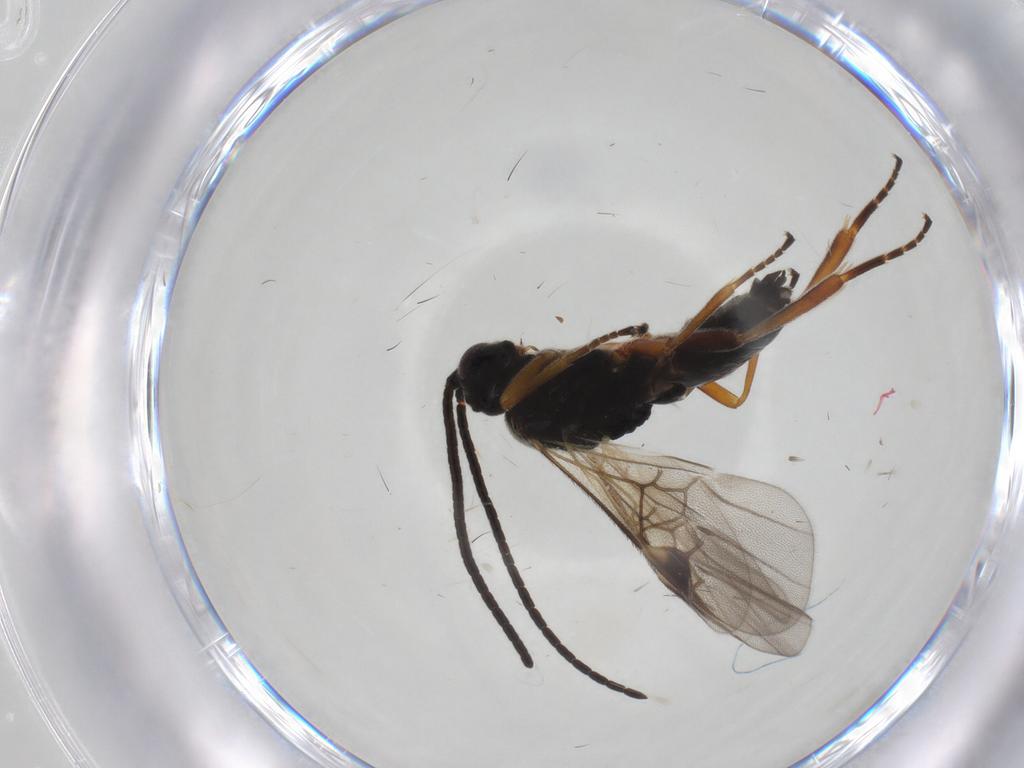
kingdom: Animalia
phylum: Arthropoda
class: Insecta
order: Hymenoptera
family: Braconidae
